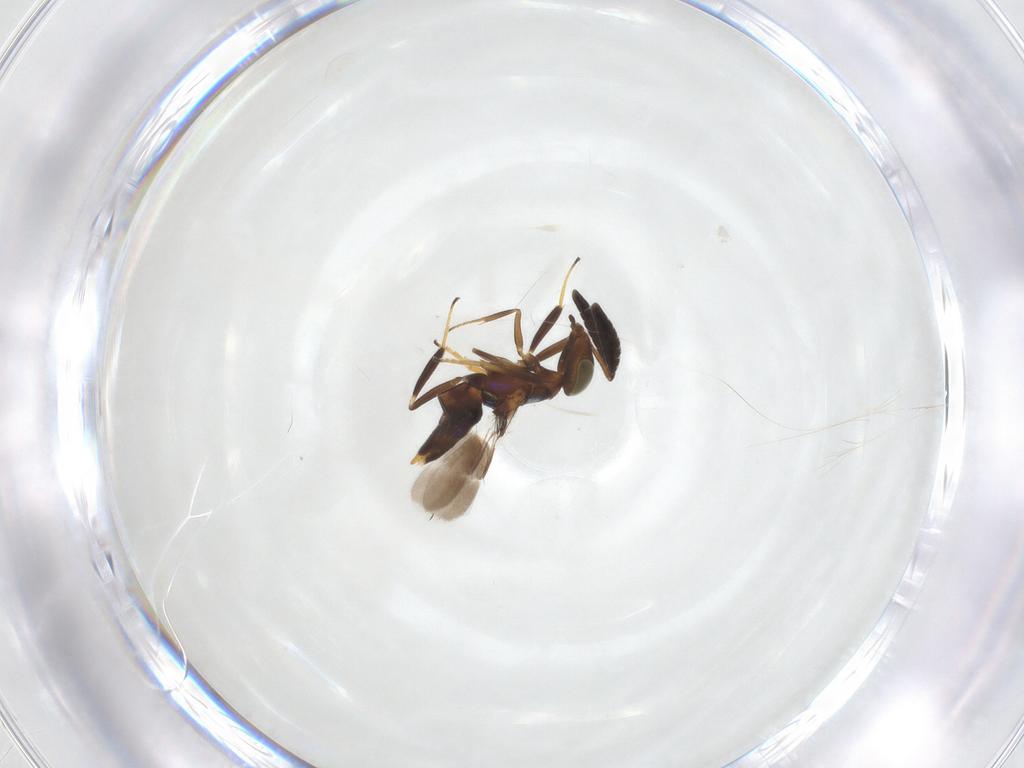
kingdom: Animalia
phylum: Arthropoda
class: Insecta
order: Hymenoptera
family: Encyrtidae
